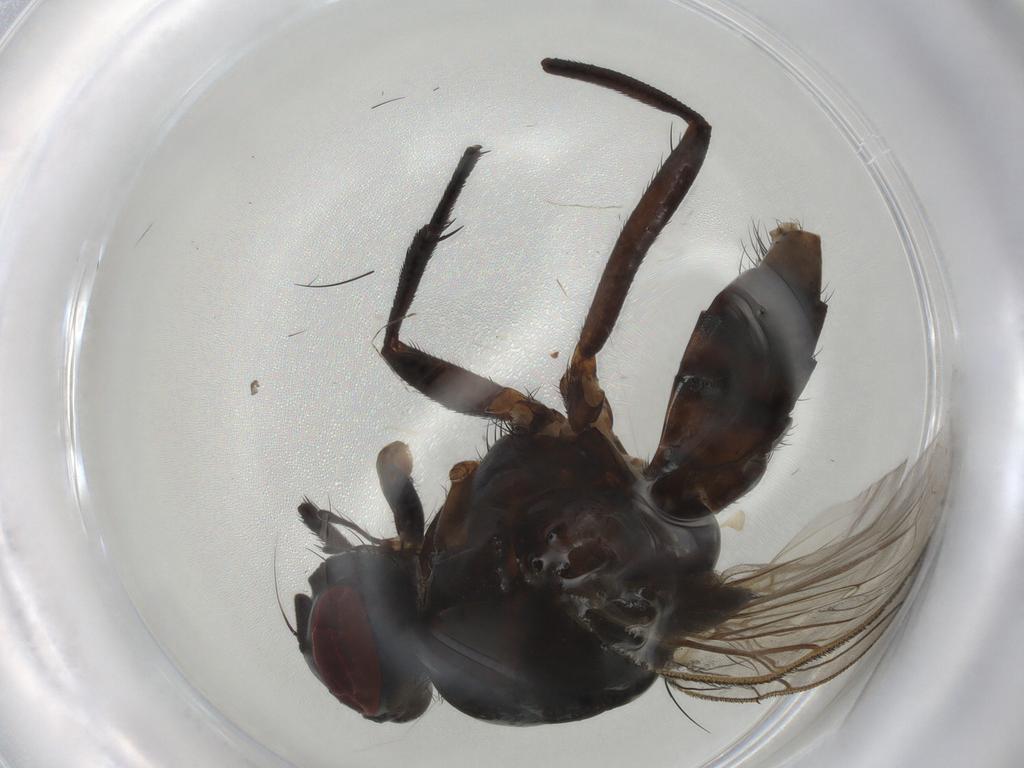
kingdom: Animalia
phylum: Arthropoda
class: Insecta
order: Diptera
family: Anthomyiidae
